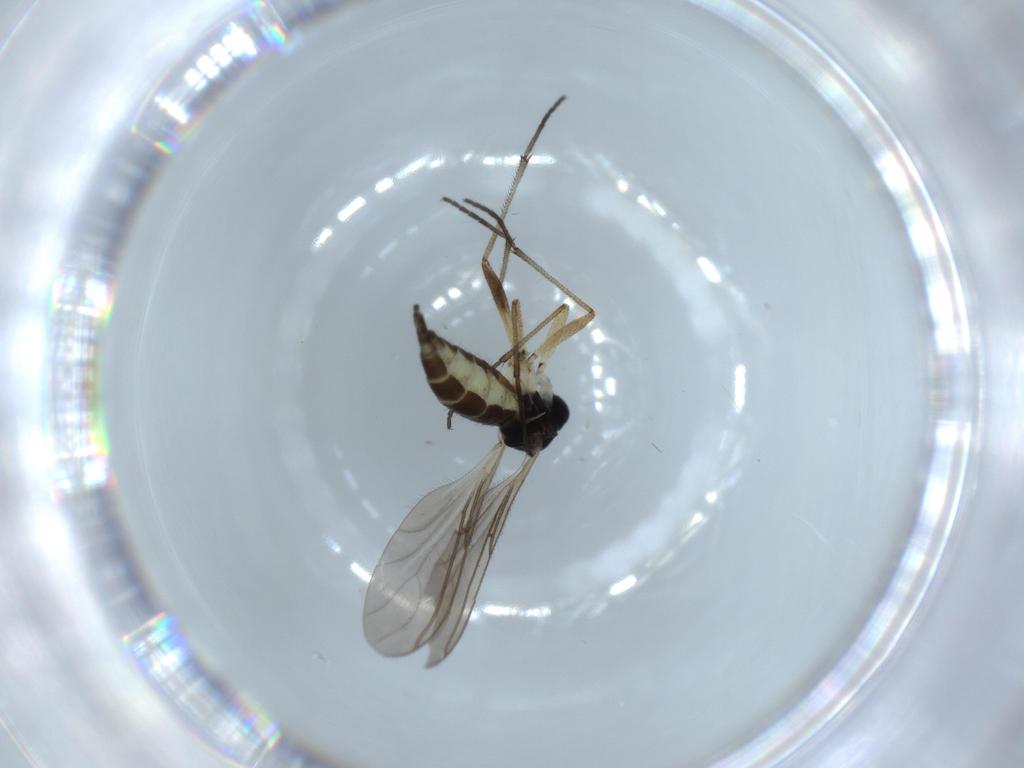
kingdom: Animalia
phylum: Arthropoda
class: Insecta
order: Diptera
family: Sciaridae
